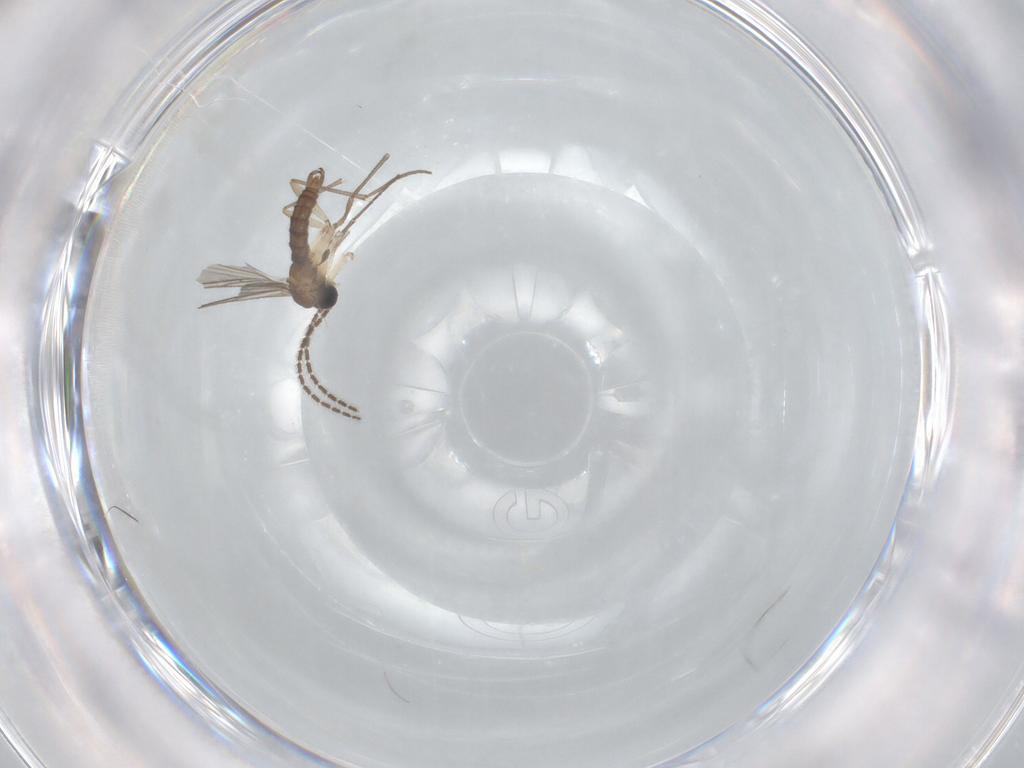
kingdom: Animalia
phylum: Arthropoda
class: Insecta
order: Diptera
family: Sciaridae
